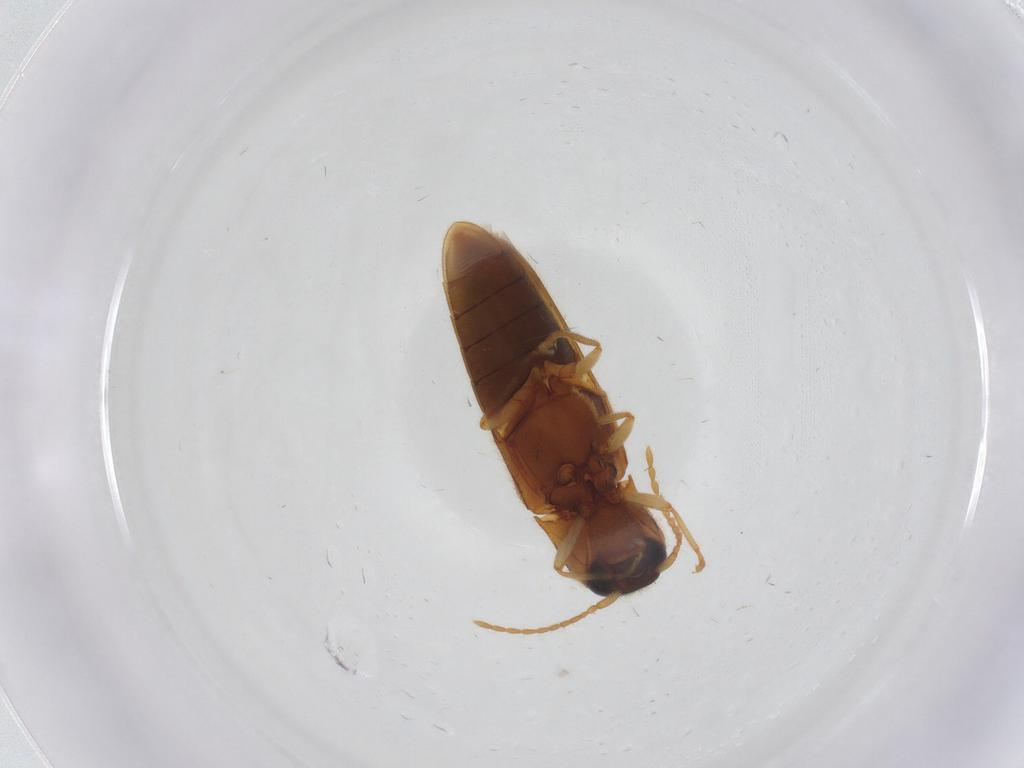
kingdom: Animalia
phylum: Arthropoda
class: Insecta
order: Coleoptera
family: Elateridae
